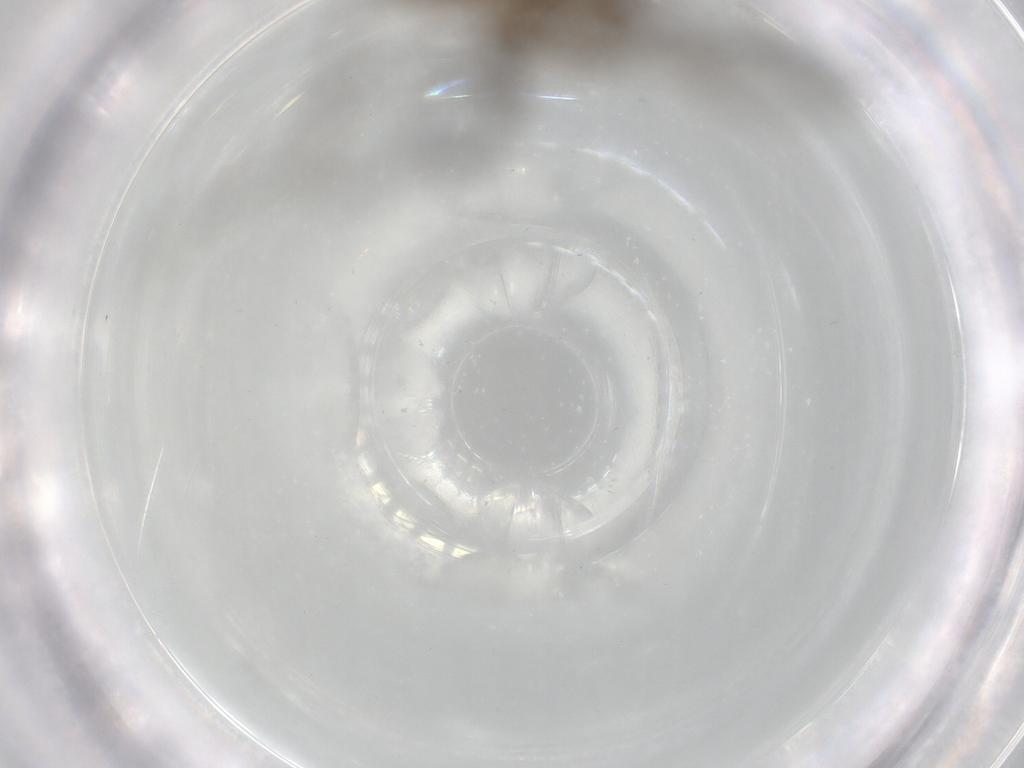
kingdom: Animalia
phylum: Arthropoda
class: Insecta
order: Diptera
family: Cecidomyiidae
